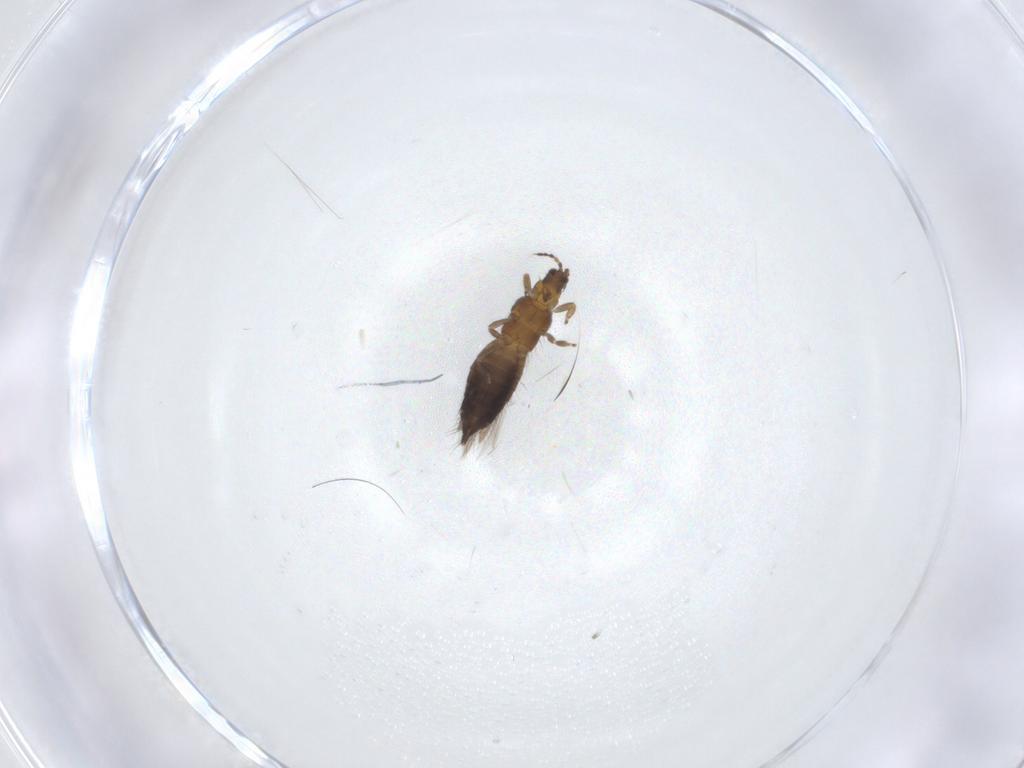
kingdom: Animalia
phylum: Arthropoda
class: Insecta
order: Thysanoptera
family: Thripidae
